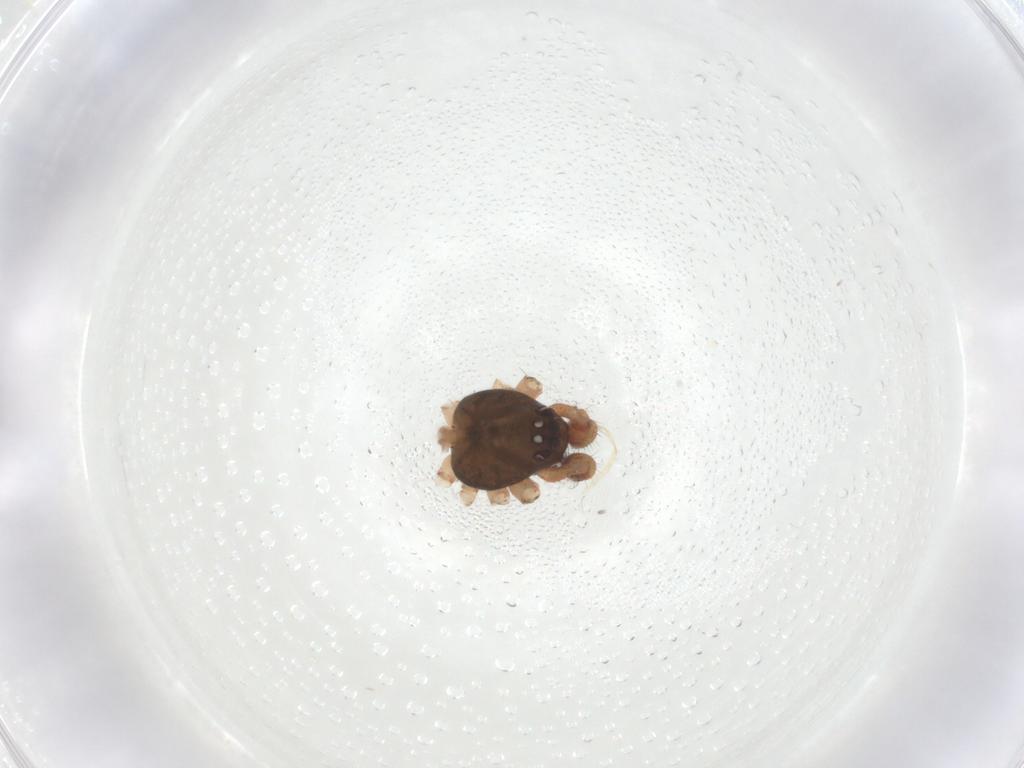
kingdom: Animalia
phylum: Arthropoda
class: Arachnida
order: Araneae
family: Theridiidae
